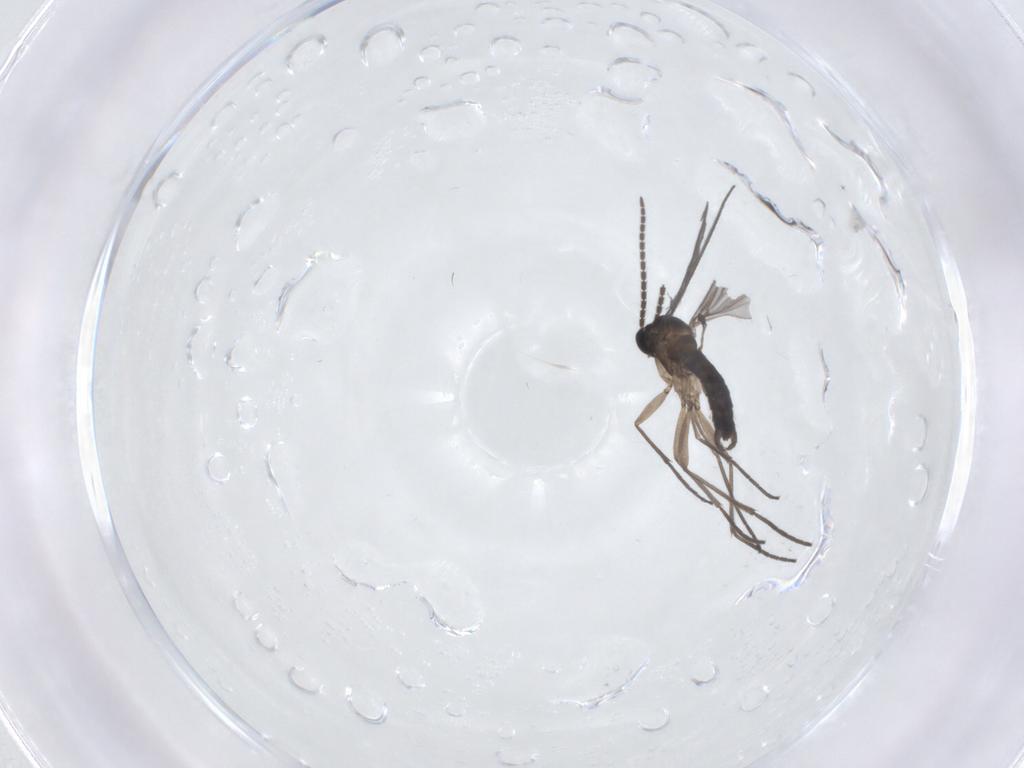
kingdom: Animalia
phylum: Arthropoda
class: Insecta
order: Diptera
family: Sciaridae
